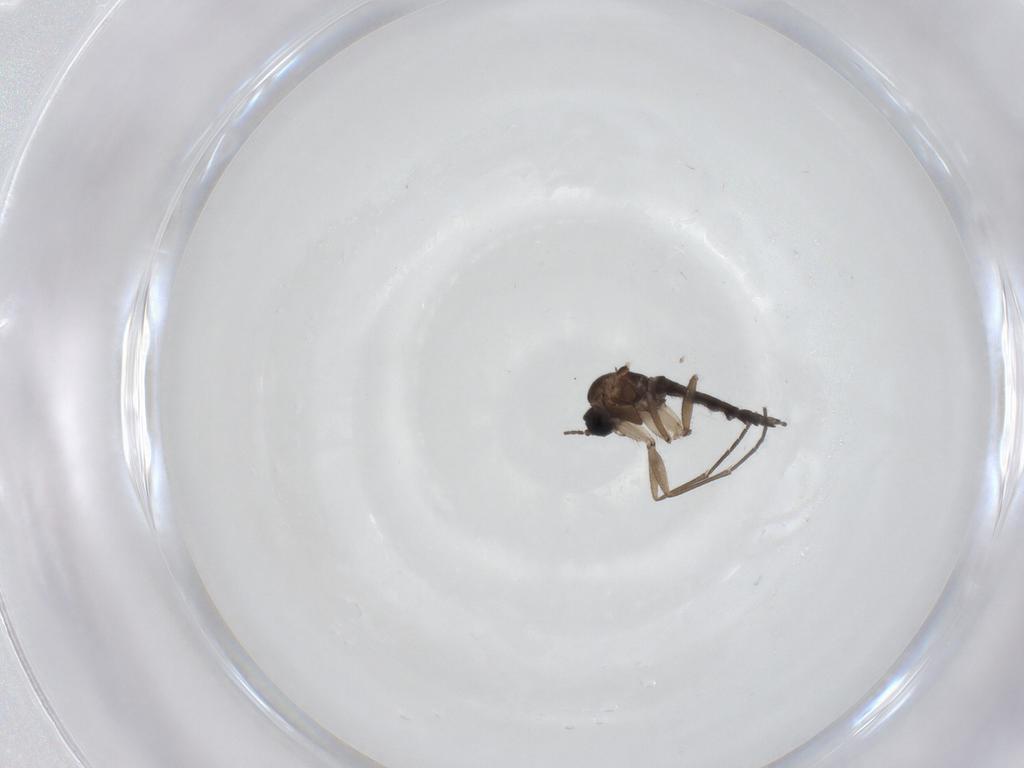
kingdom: Animalia
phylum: Arthropoda
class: Insecta
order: Diptera
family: Sciaridae
